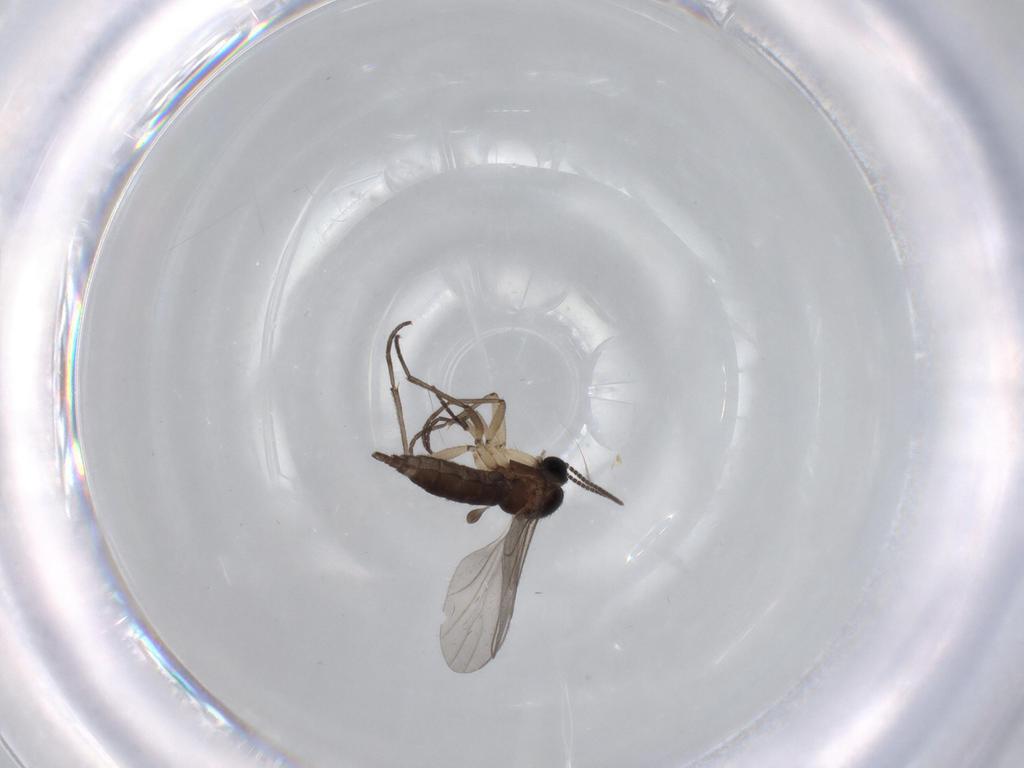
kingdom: Animalia
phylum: Arthropoda
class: Insecta
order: Diptera
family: Sciaridae
